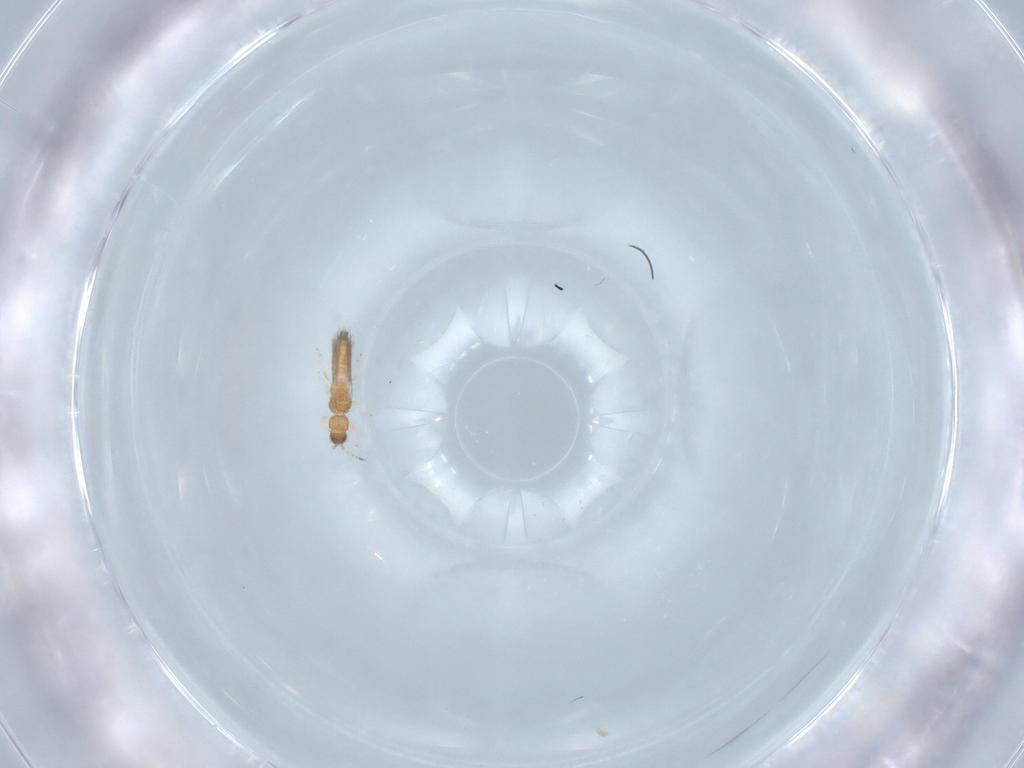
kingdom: Animalia
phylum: Arthropoda
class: Insecta
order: Thysanoptera
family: Thripidae
